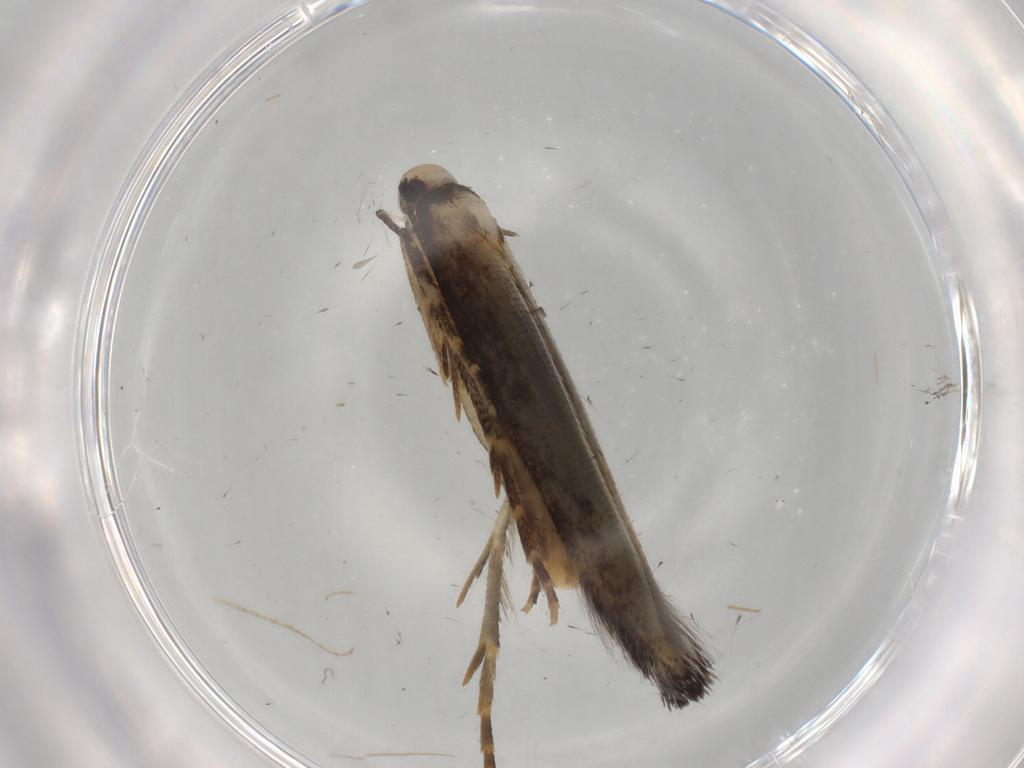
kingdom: Animalia
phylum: Arthropoda
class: Insecta
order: Lepidoptera
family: Cosmopterigidae
